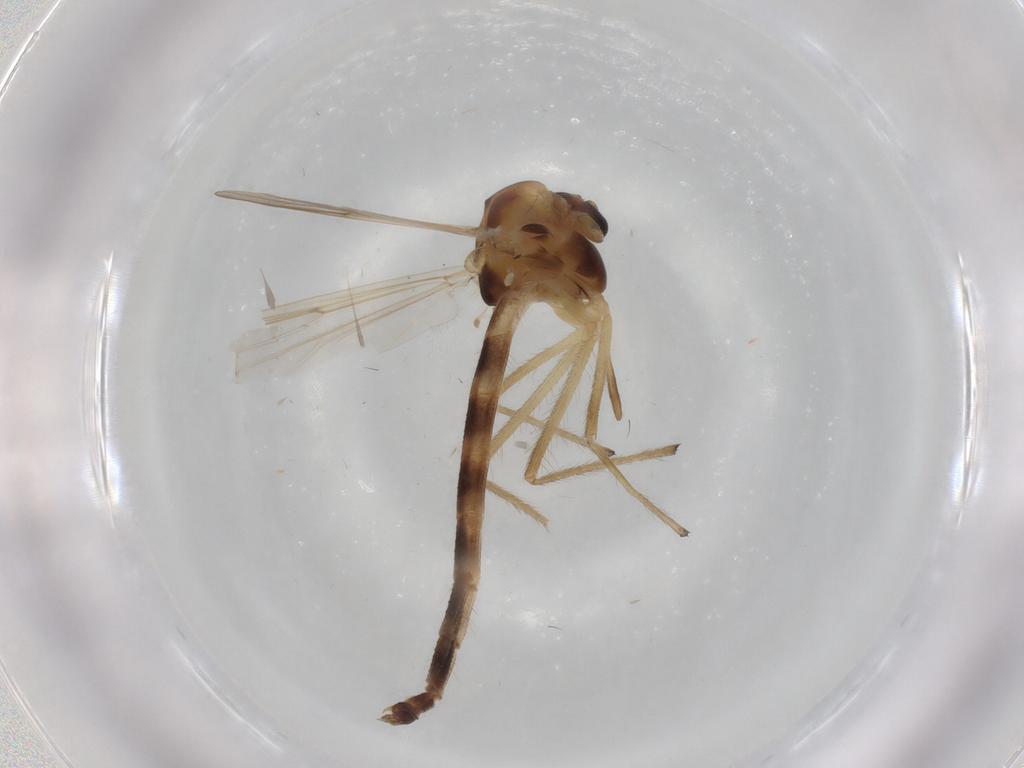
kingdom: Animalia
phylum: Arthropoda
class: Insecta
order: Diptera
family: Chironomidae
